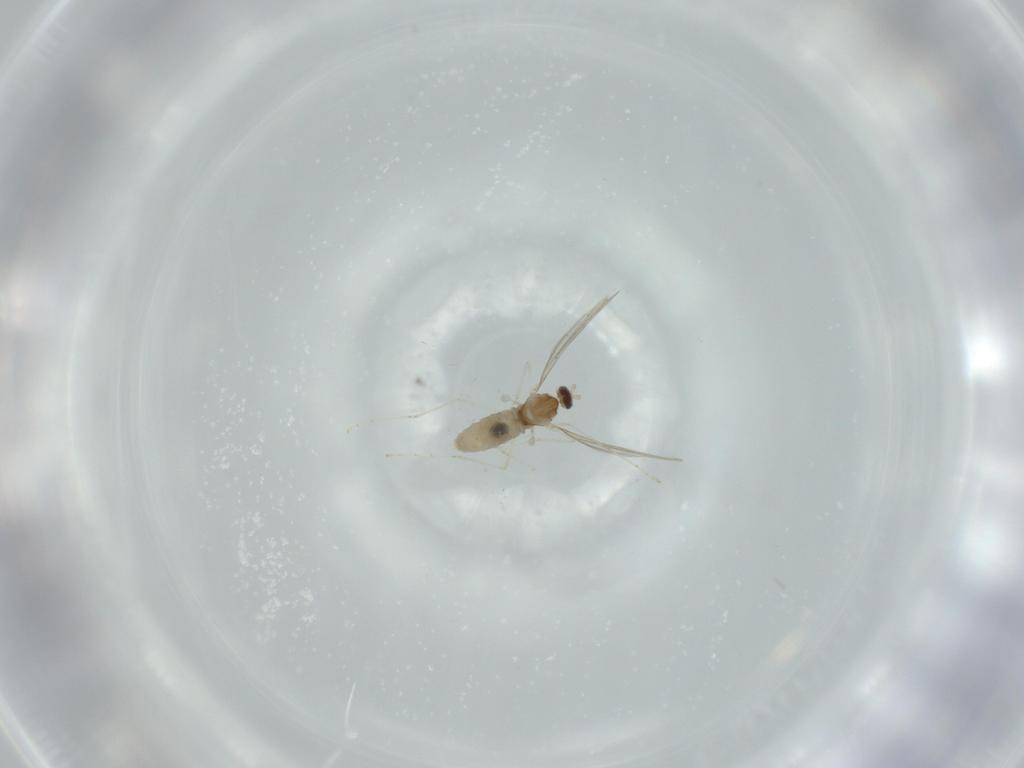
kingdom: Animalia
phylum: Arthropoda
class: Insecta
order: Diptera
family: Cecidomyiidae
